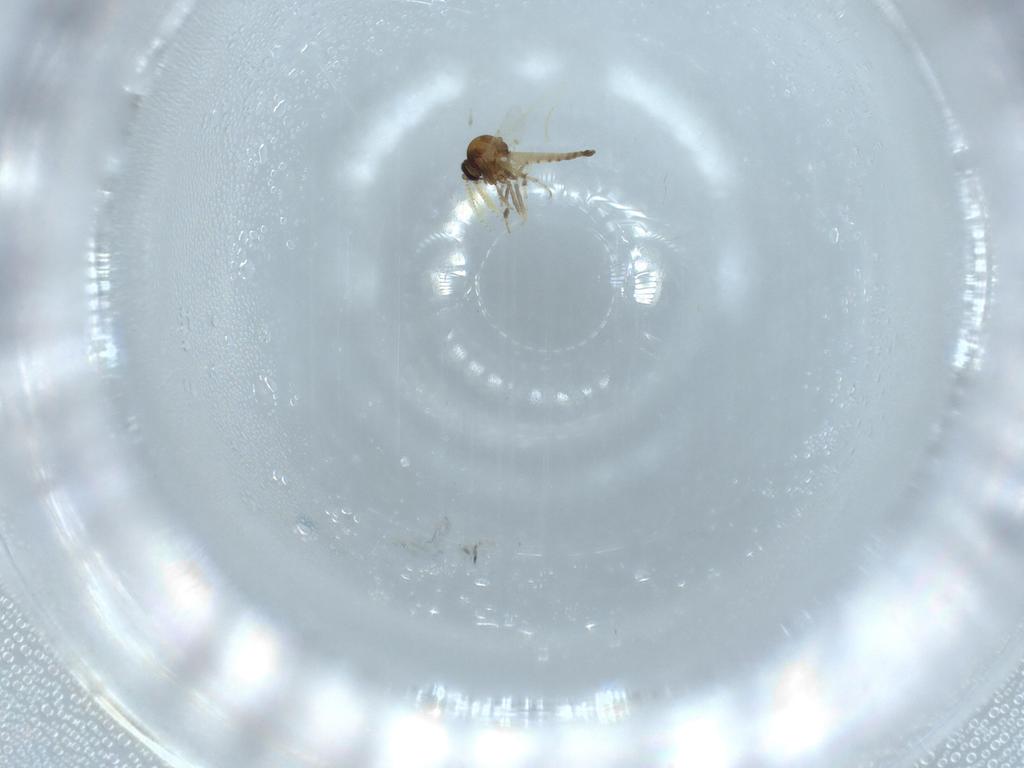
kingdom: Animalia
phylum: Arthropoda
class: Insecta
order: Diptera
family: Ceratopogonidae
